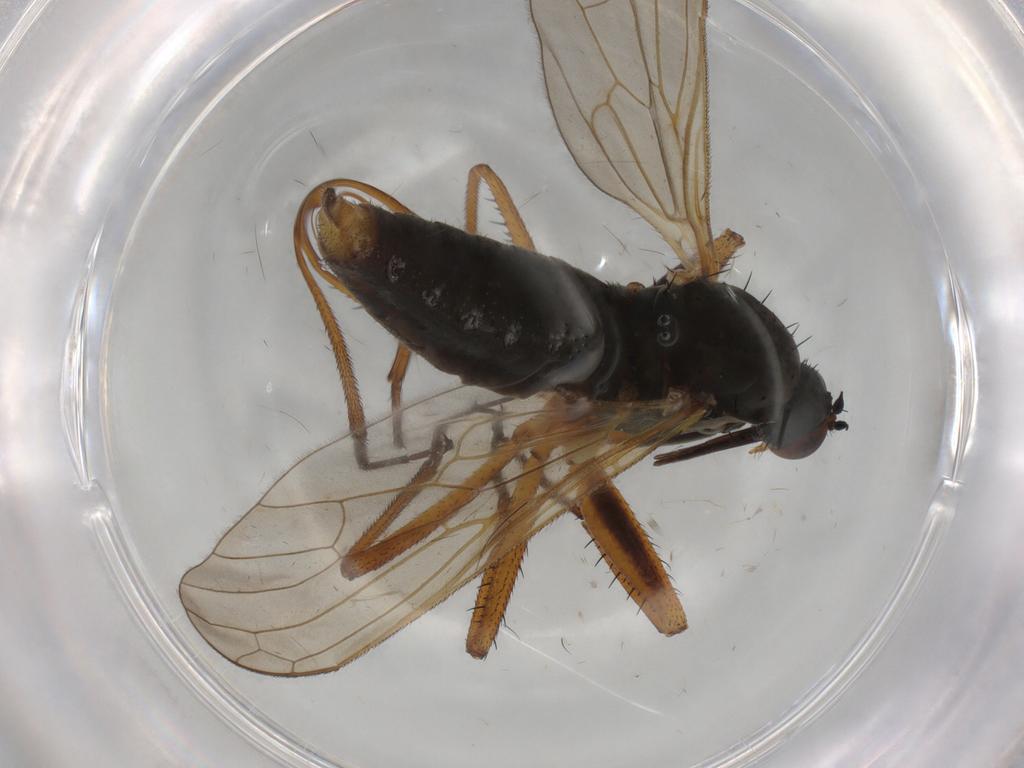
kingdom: Animalia
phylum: Arthropoda
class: Insecta
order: Diptera
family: Empididae
